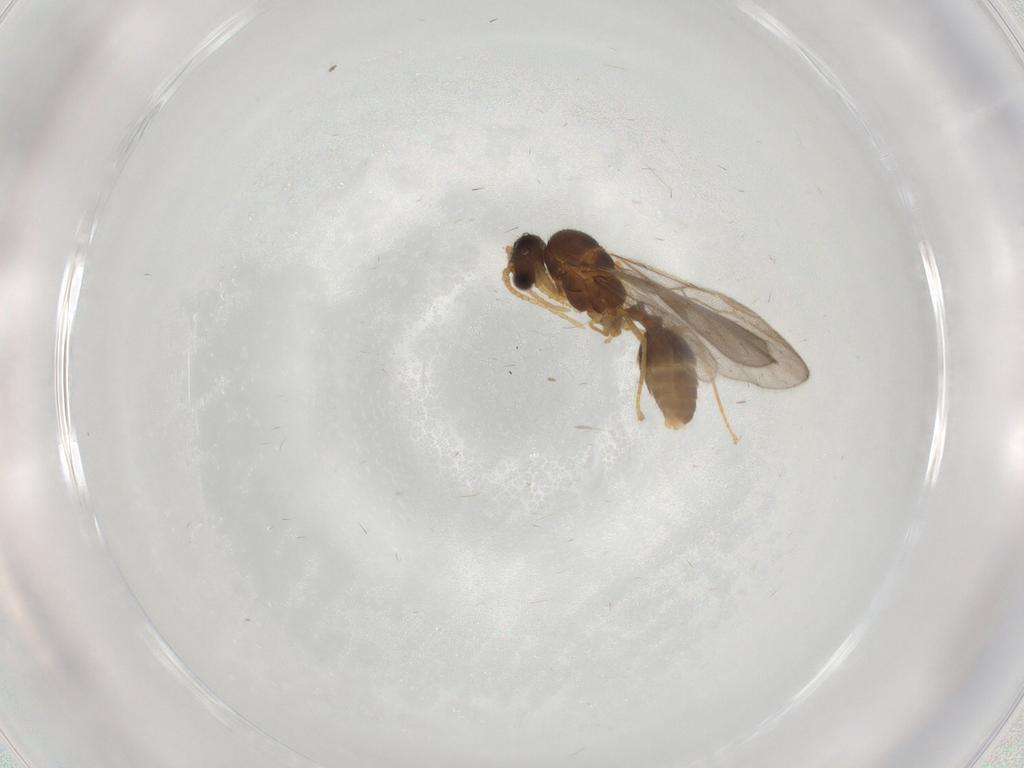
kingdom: Animalia
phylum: Arthropoda
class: Insecta
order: Hymenoptera
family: Formicidae
